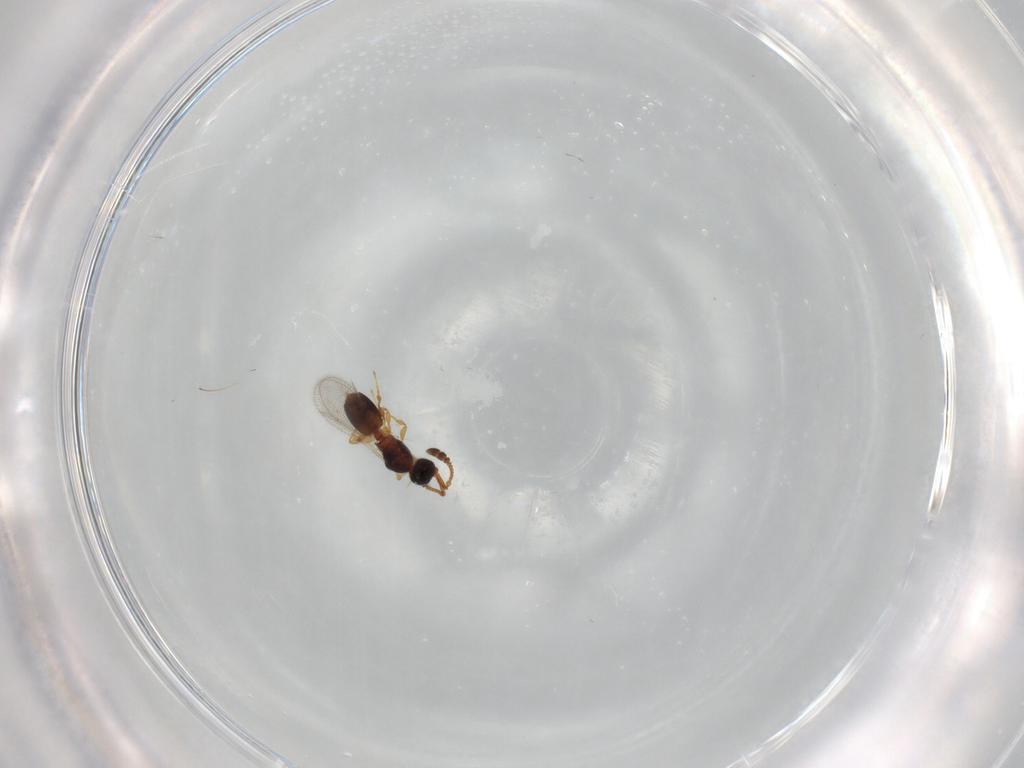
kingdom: Animalia
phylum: Arthropoda
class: Insecta
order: Hymenoptera
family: Diapriidae
